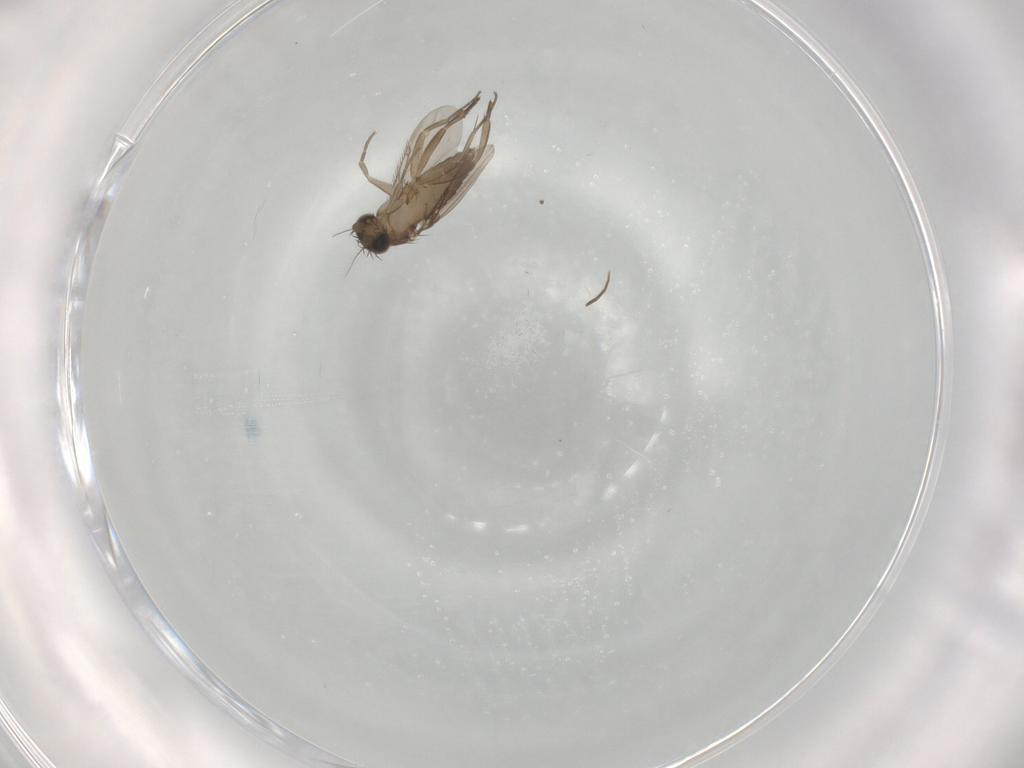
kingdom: Animalia
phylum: Arthropoda
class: Insecta
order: Diptera
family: Phoridae
